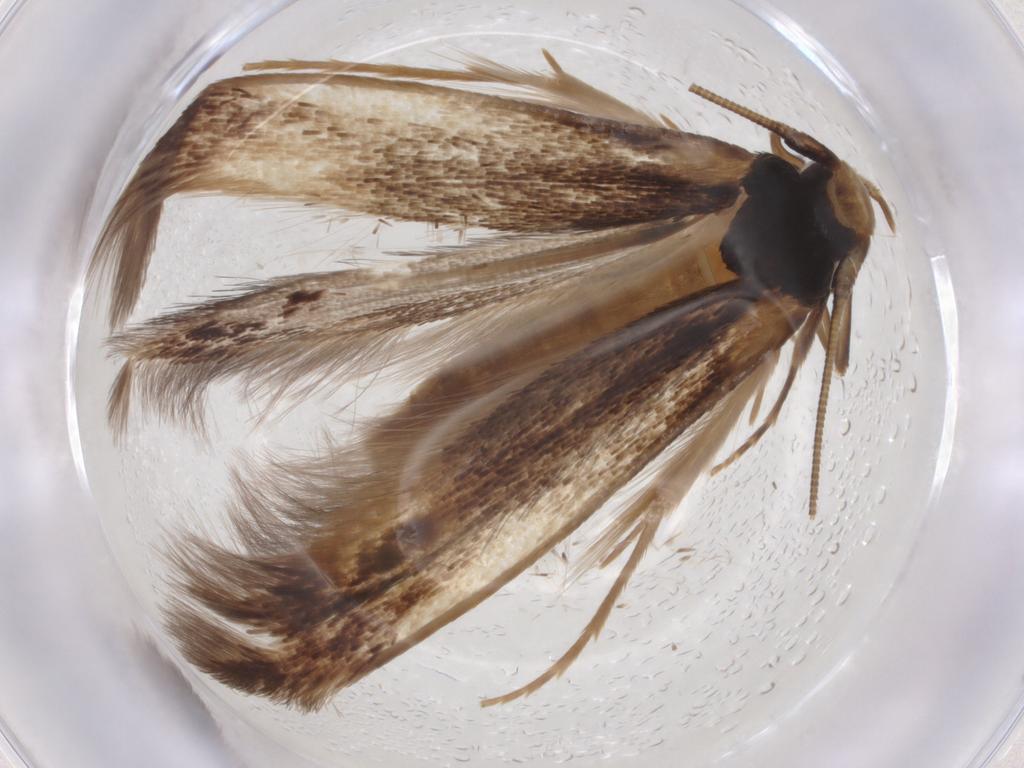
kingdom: Animalia
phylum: Arthropoda
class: Insecta
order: Lepidoptera
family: Tineidae
